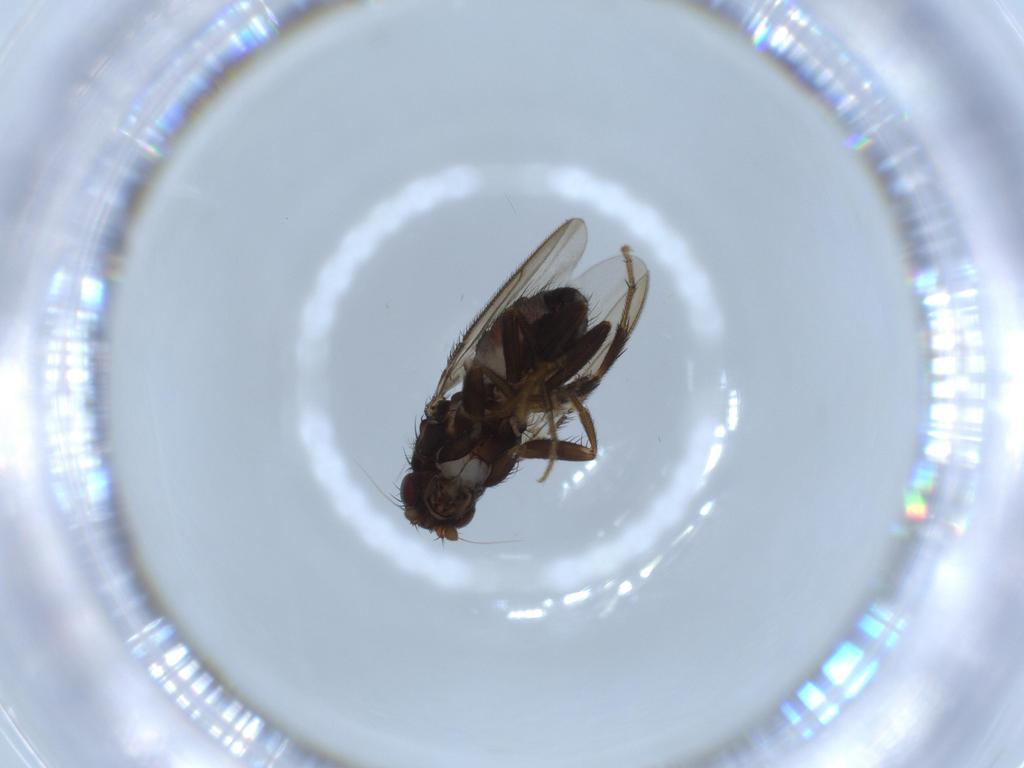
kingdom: Animalia
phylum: Arthropoda
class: Insecta
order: Diptera
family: Sphaeroceridae
